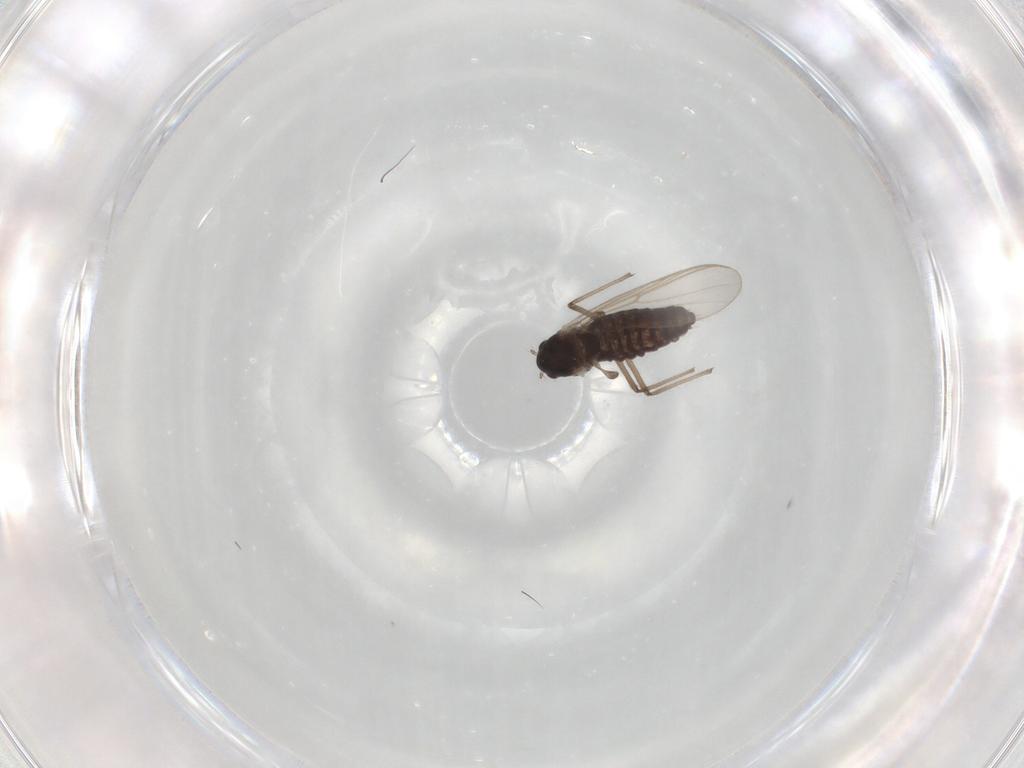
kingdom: Animalia
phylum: Arthropoda
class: Insecta
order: Diptera
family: Chironomidae
